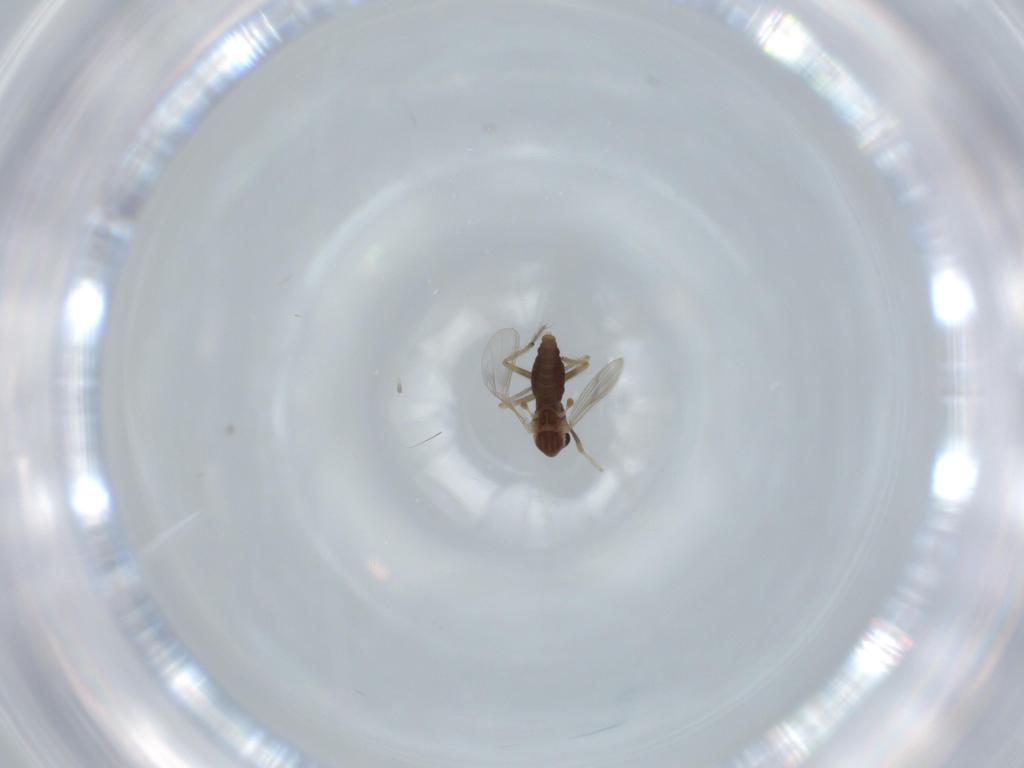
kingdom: Animalia
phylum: Arthropoda
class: Insecta
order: Diptera
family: Chironomidae
